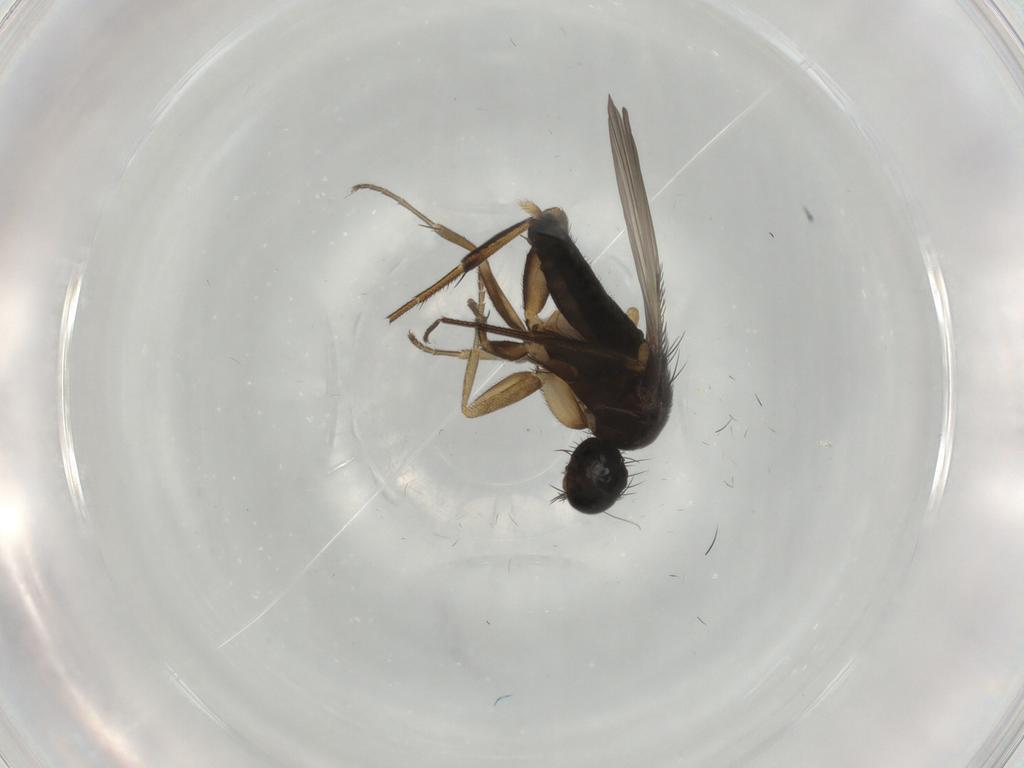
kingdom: Animalia
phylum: Arthropoda
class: Insecta
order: Diptera
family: Phoridae
